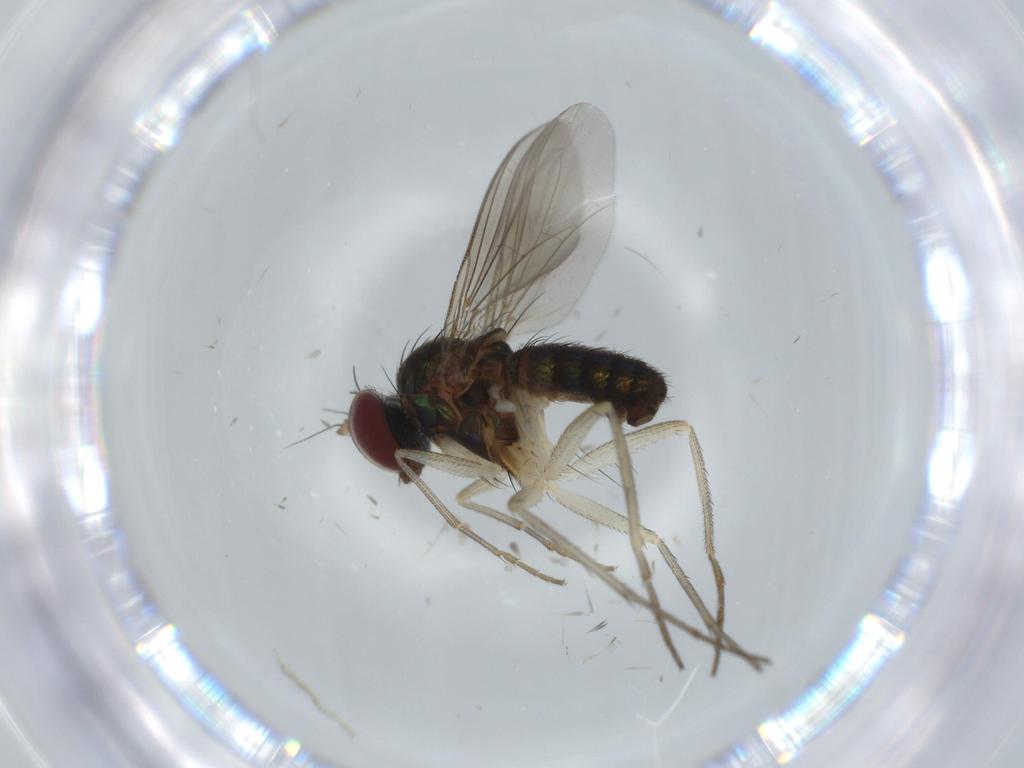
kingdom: Animalia
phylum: Arthropoda
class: Insecta
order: Diptera
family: Dolichopodidae
